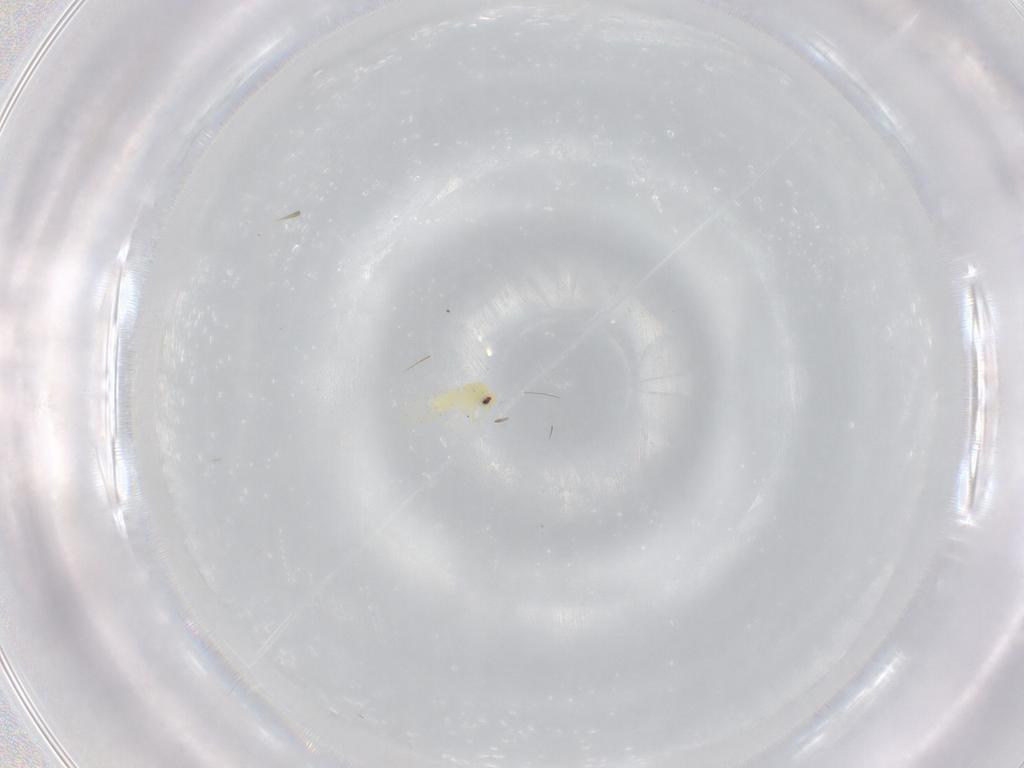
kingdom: Animalia
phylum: Arthropoda
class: Insecta
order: Hemiptera
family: Aleyrodidae
